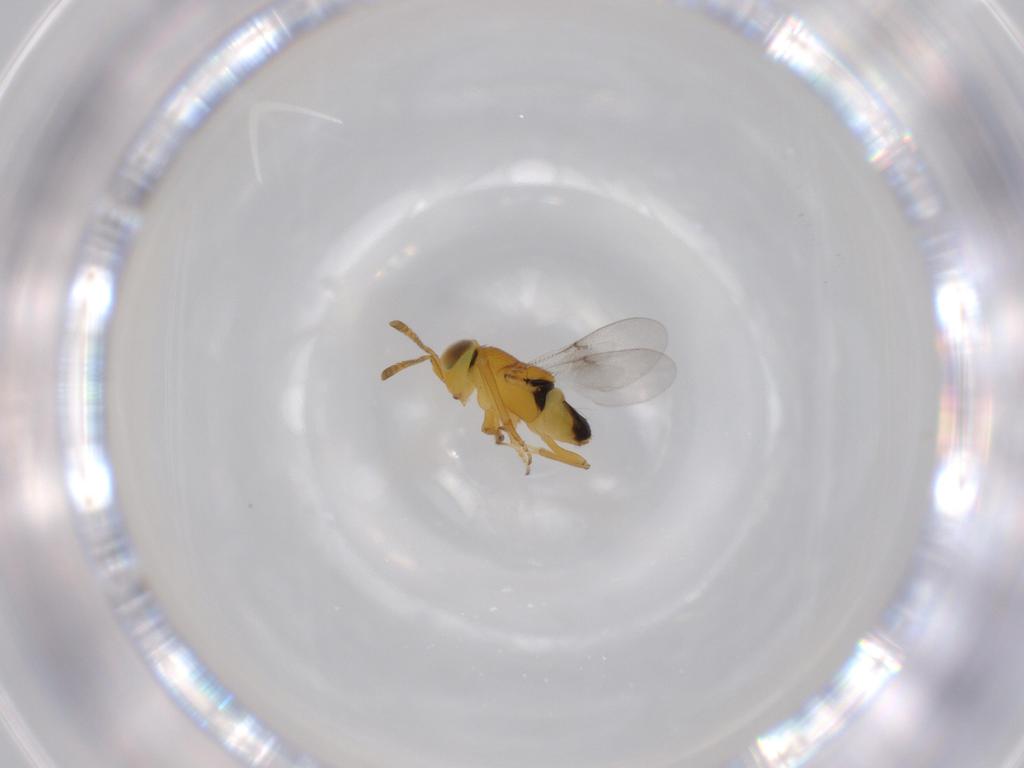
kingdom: Animalia
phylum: Arthropoda
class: Insecta
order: Hymenoptera
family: Encyrtidae
